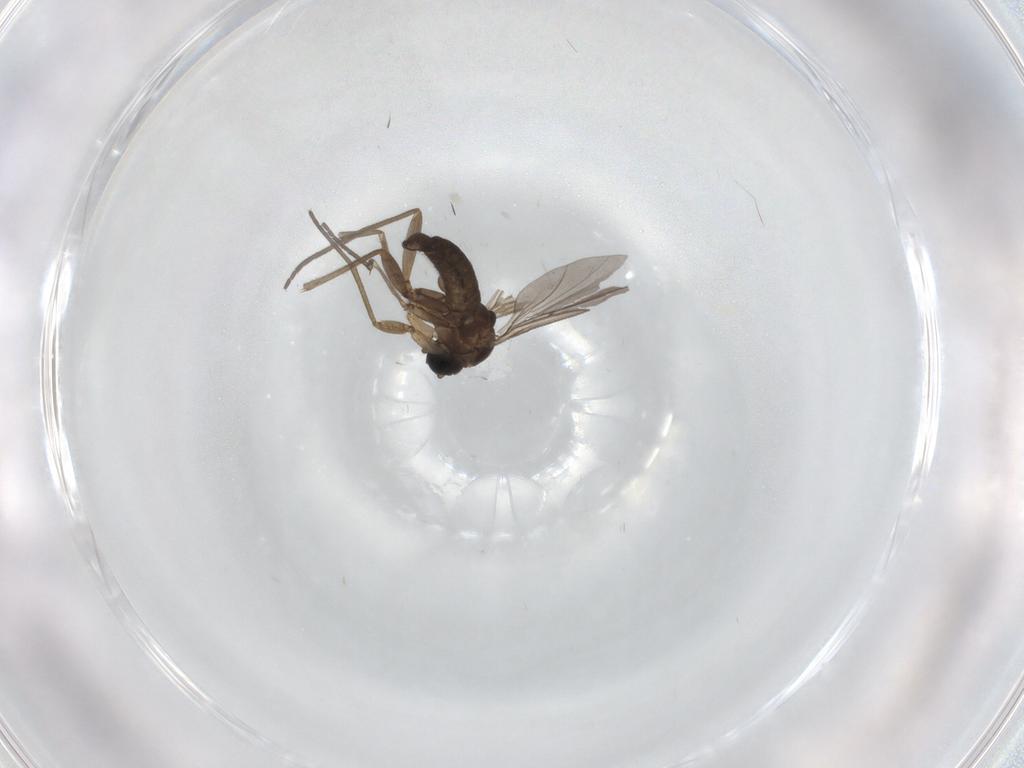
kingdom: Animalia
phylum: Arthropoda
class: Insecta
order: Diptera
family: Sciaridae
